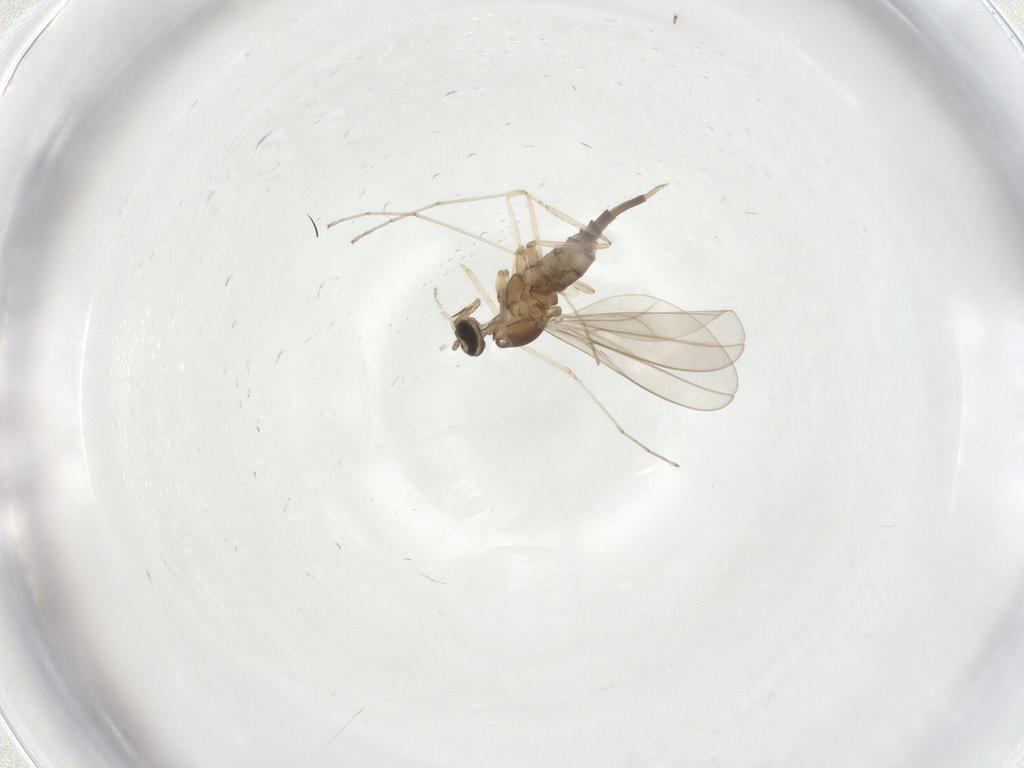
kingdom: Animalia
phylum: Arthropoda
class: Insecta
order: Diptera
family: Cecidomyiidae
